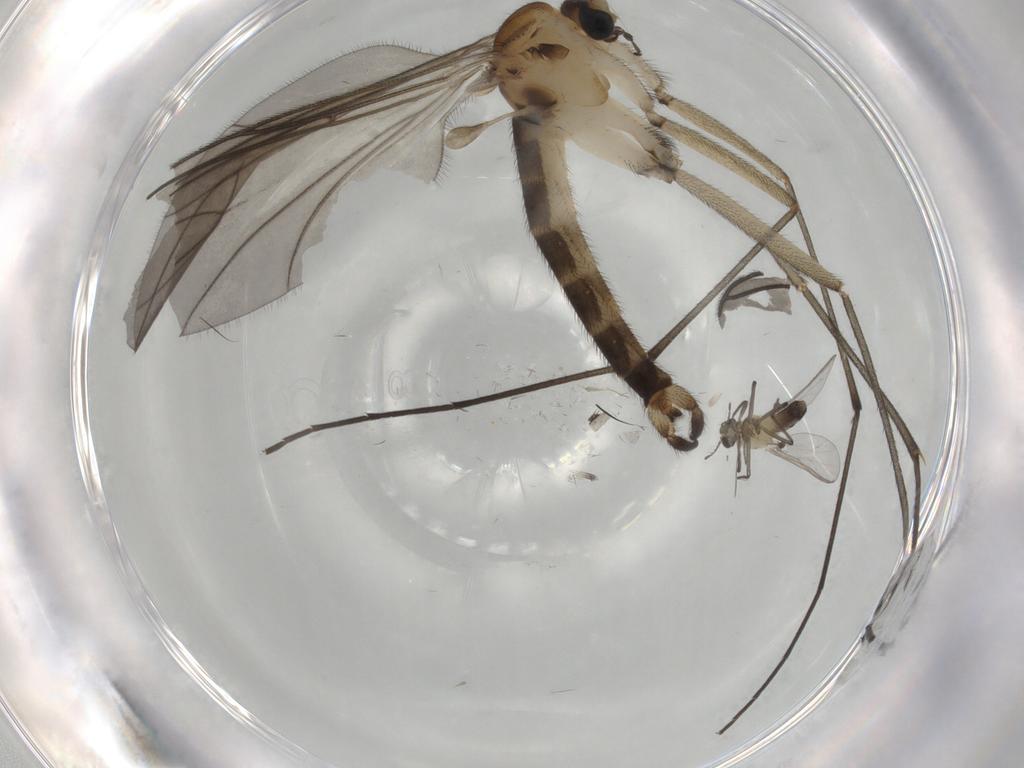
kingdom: Animalia
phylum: Arthropoda
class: Insecta
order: Diptera
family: Sciaridae
